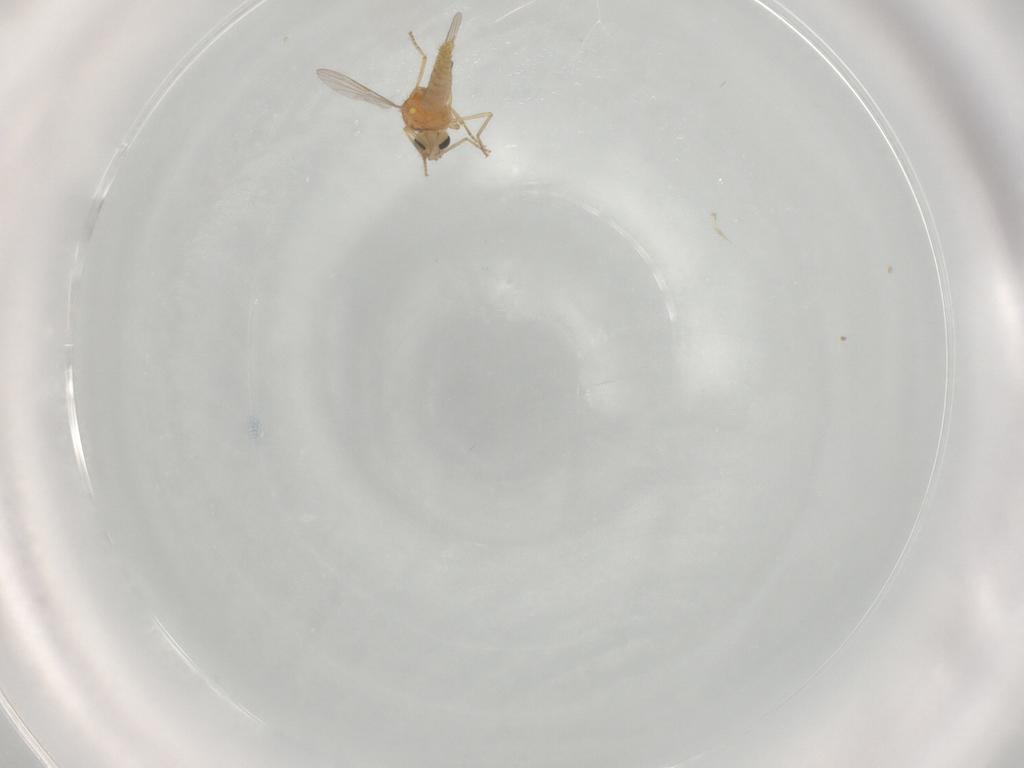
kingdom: Animalia
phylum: Arthropoda
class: Insecta
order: Diptera
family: Ceratopogonidae
